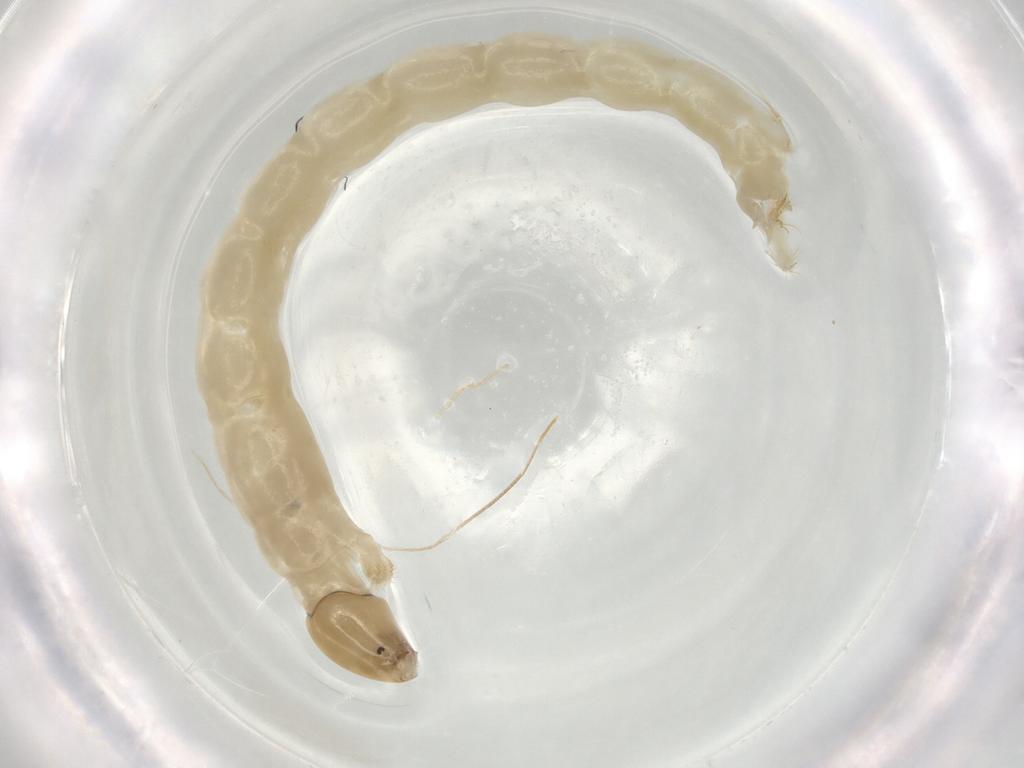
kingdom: Animalia
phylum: Arthropoda
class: Insecta
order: Diptera
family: Chironomidae
